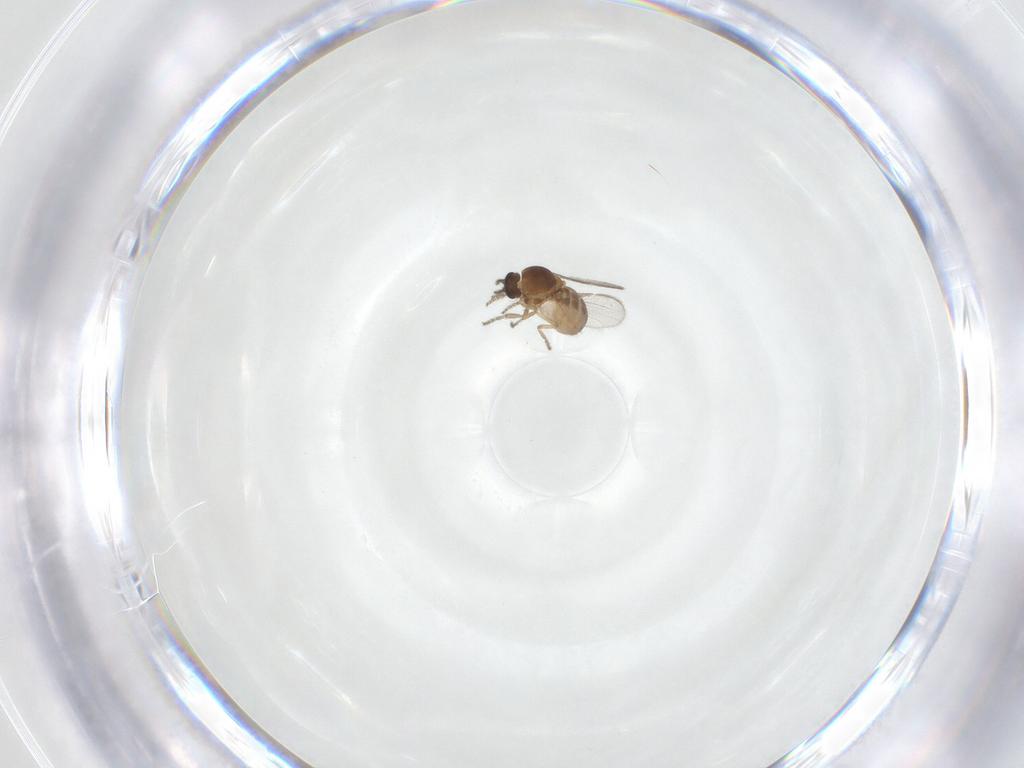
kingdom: Animalia
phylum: Arthropoda
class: Insecta
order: Diptera
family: Ceratopogonidae
